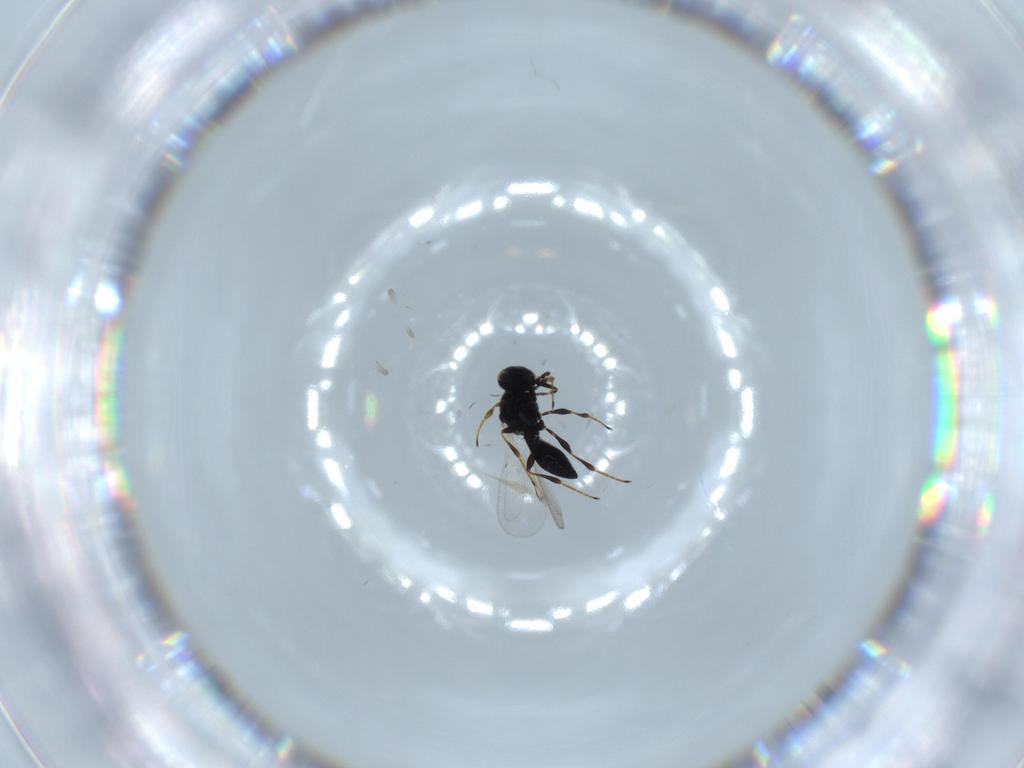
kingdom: Animalia
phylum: Arthropoda
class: Insecta
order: Hymenoptera
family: Platygastridae
